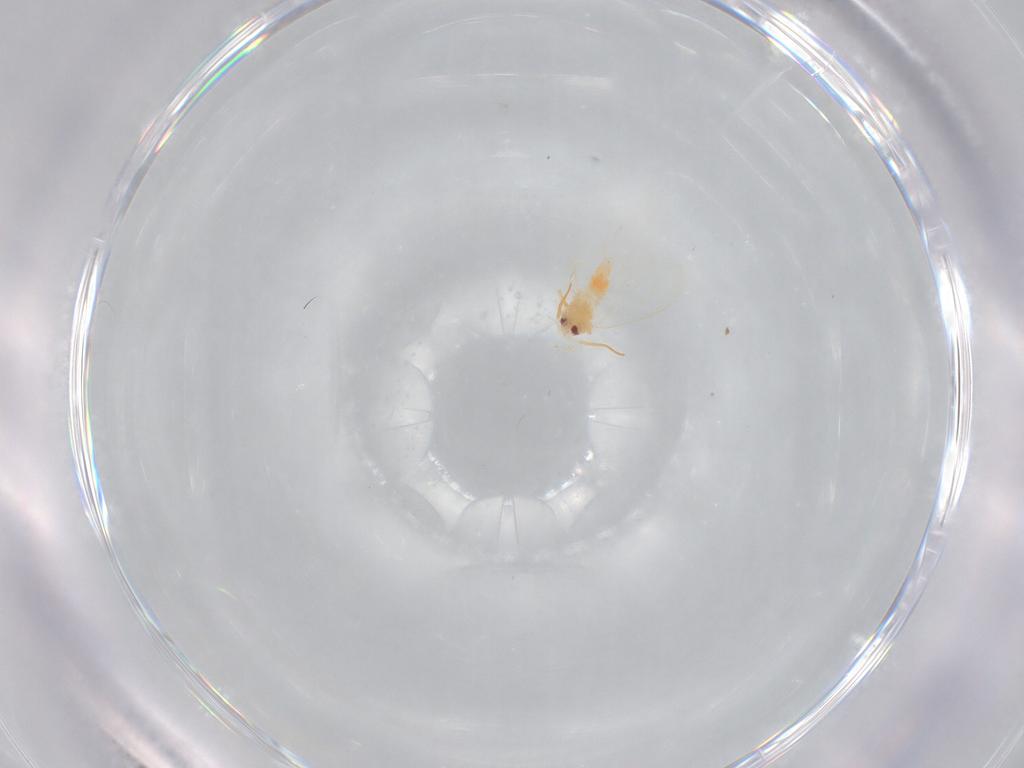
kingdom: Animalia
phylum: Arthropoda
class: Insecta
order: Hemiptera
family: Aleyrodidae
